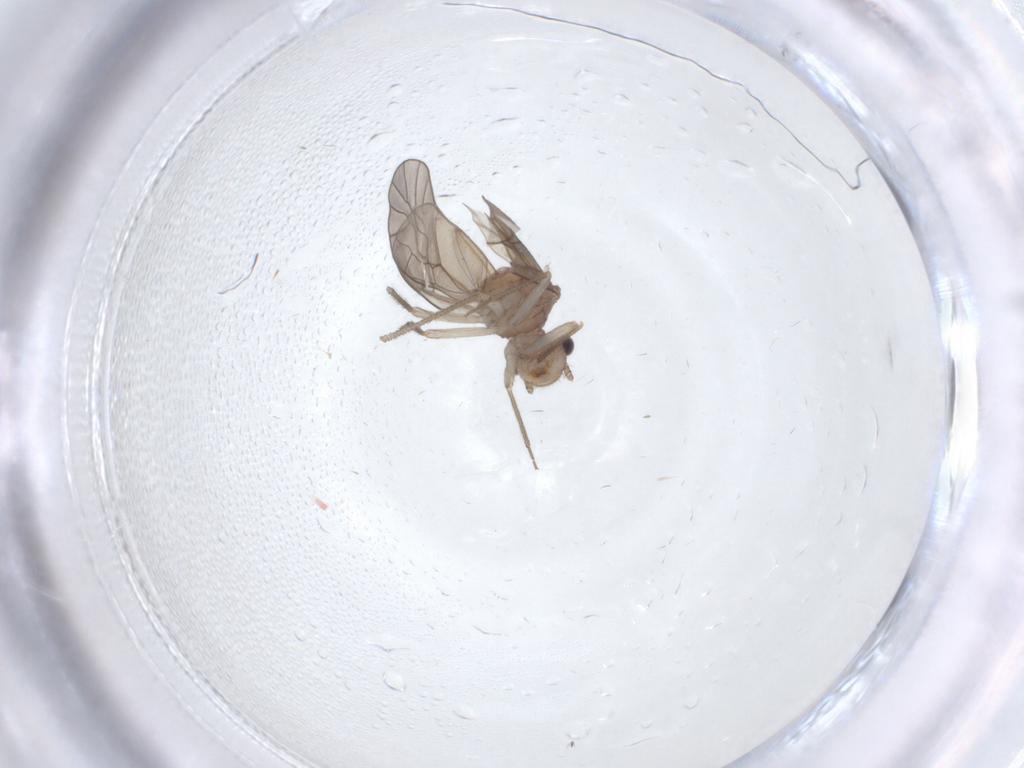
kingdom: Animalia
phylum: Arthropoda
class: Insecta
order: Psocodea
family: Caeciliusidae
